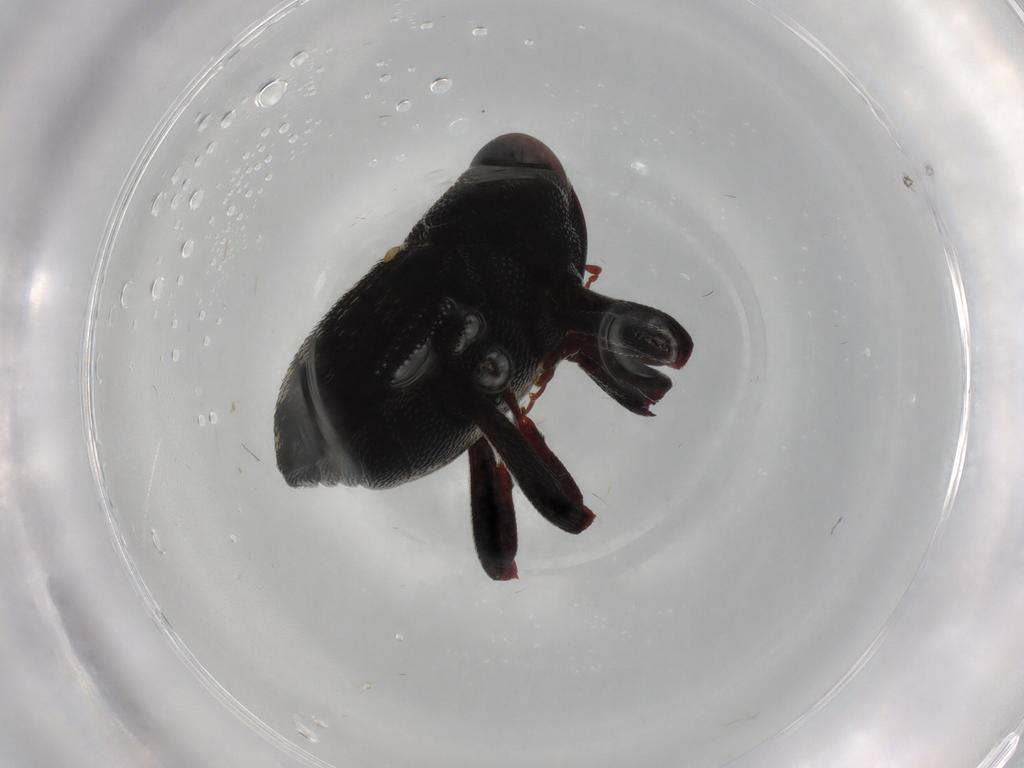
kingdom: Animalia
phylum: Arthropoda
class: Insecta
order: Coleoptera
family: Curculionidae
